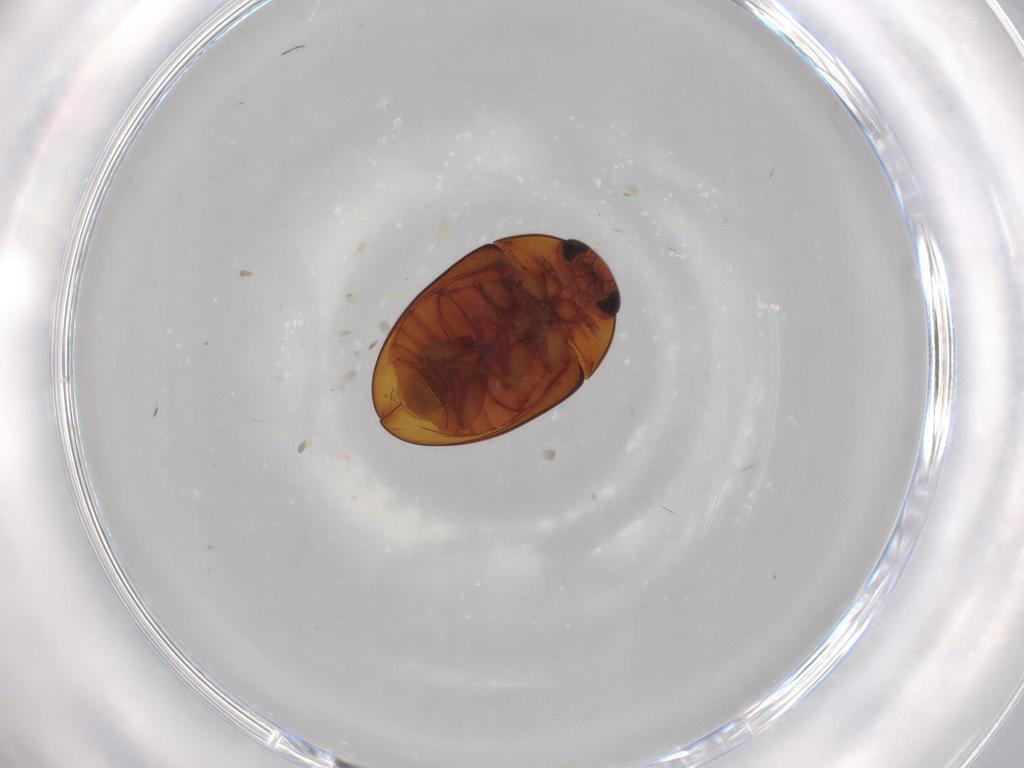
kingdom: Animalia
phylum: Arthropoda
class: Insecta
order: Coleoptera
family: Phalacridae
